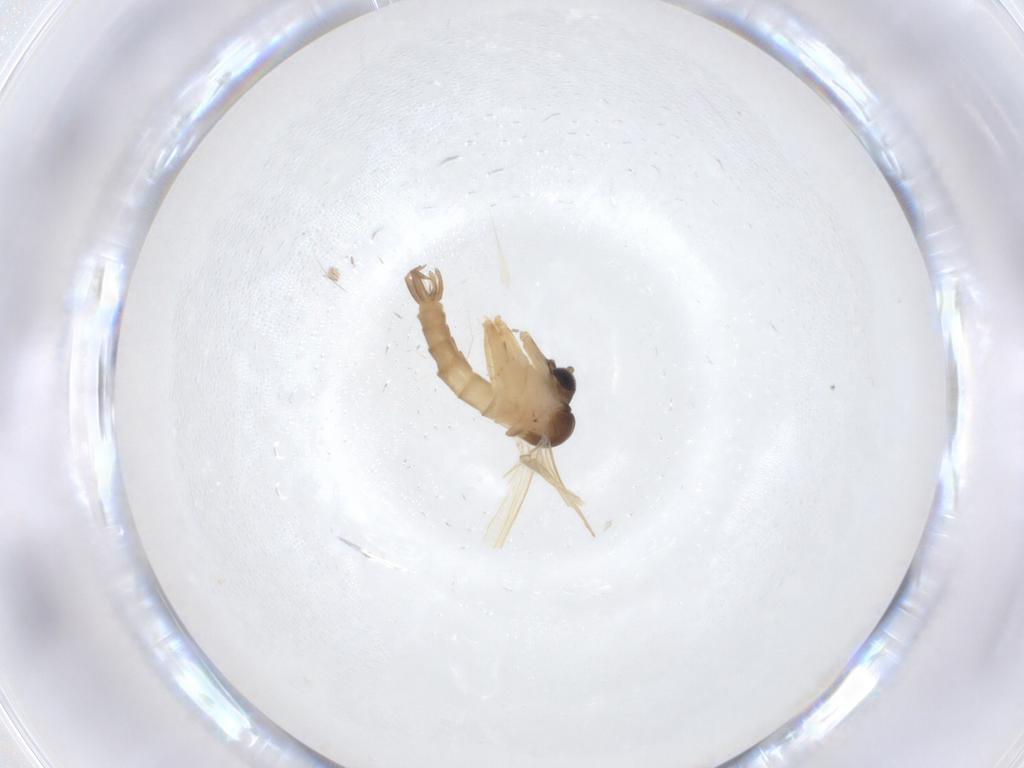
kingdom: Animalia
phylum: Arthropoda
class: Insecta
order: Diptera
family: Psychodidae
